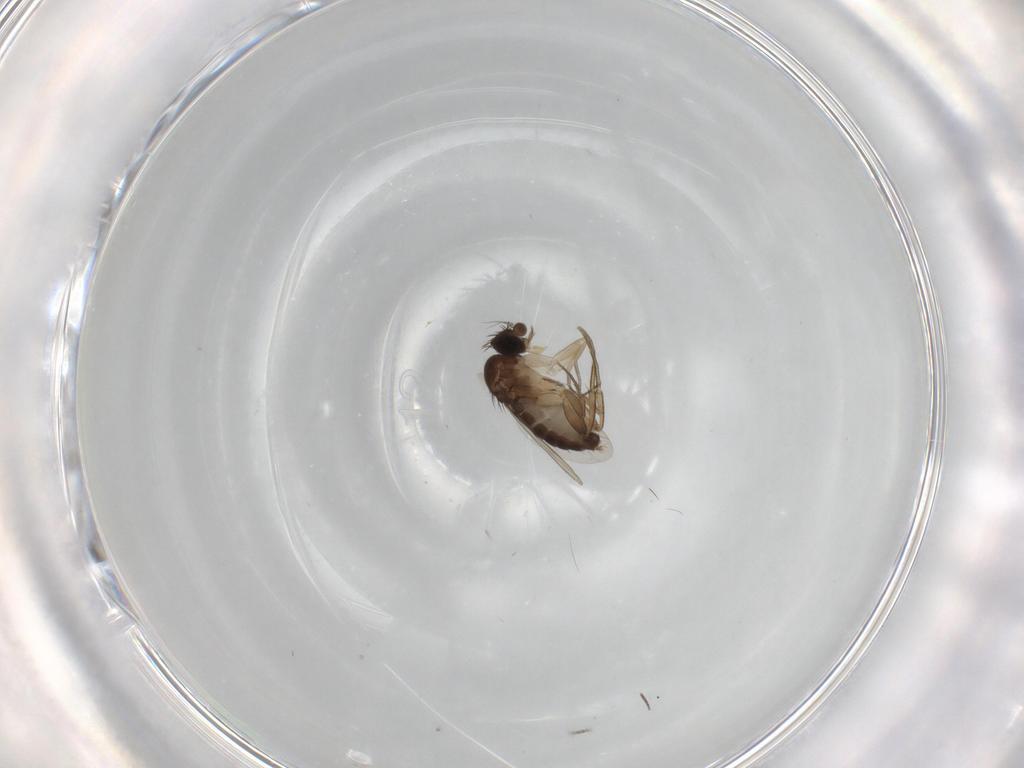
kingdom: Animalia
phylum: Arthropoda
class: Insecta
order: Diptera
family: Phoridae
